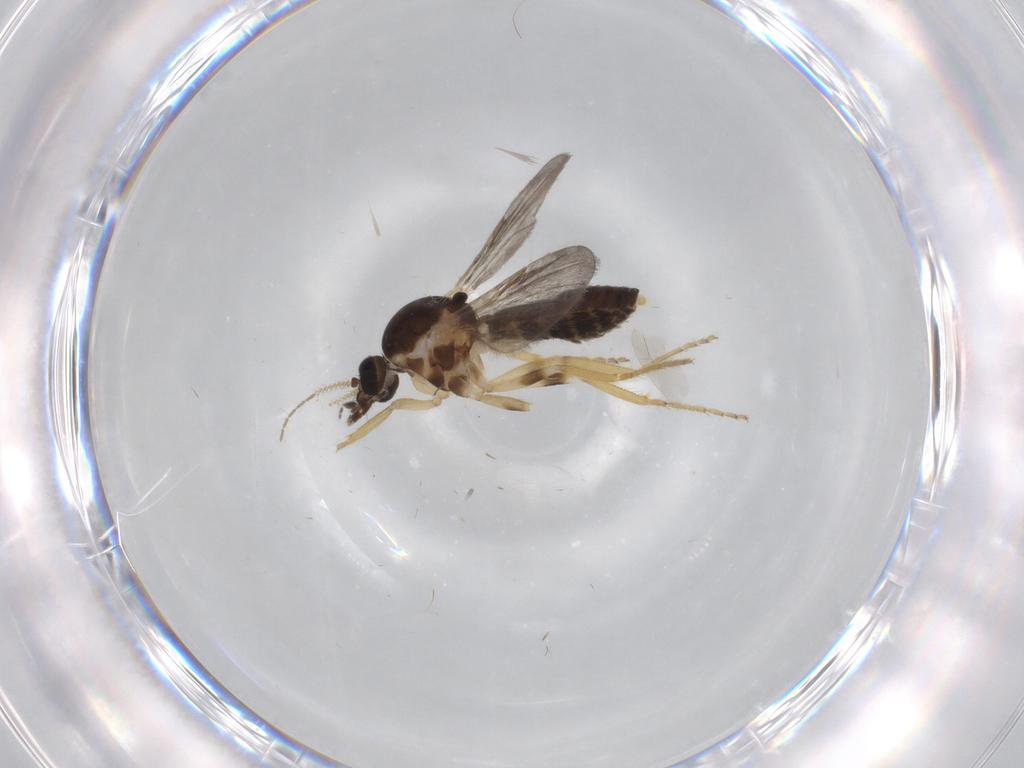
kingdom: Animalia
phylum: Arthropoda
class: Insecta
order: Diptera
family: Ceratopogonidae
